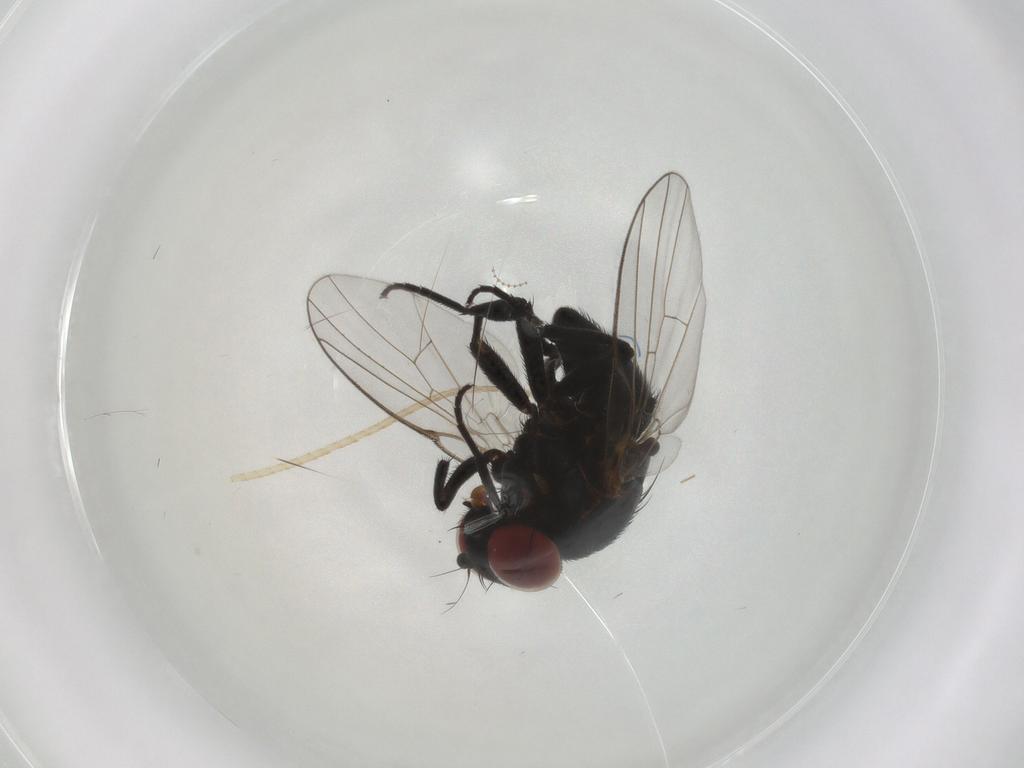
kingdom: Animalia
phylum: Arthropoda
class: Insecta
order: Diptera
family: Agromyzidae
